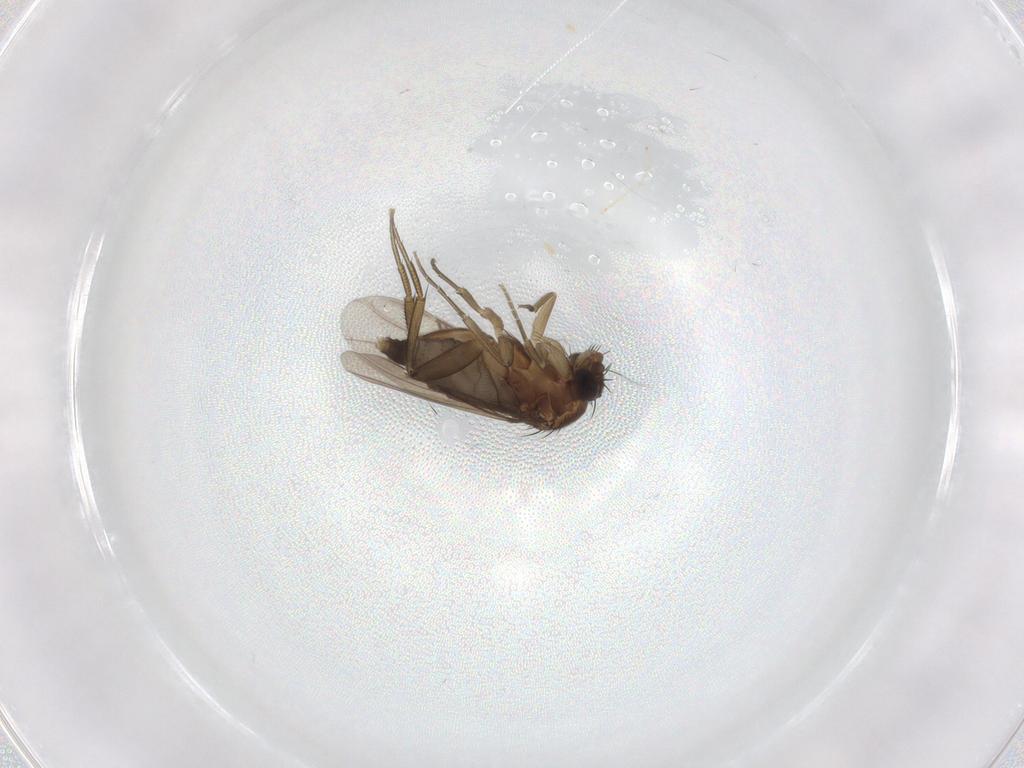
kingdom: Animalia
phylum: Arthropoda
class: Insecta
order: Diptera
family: Phoridae
